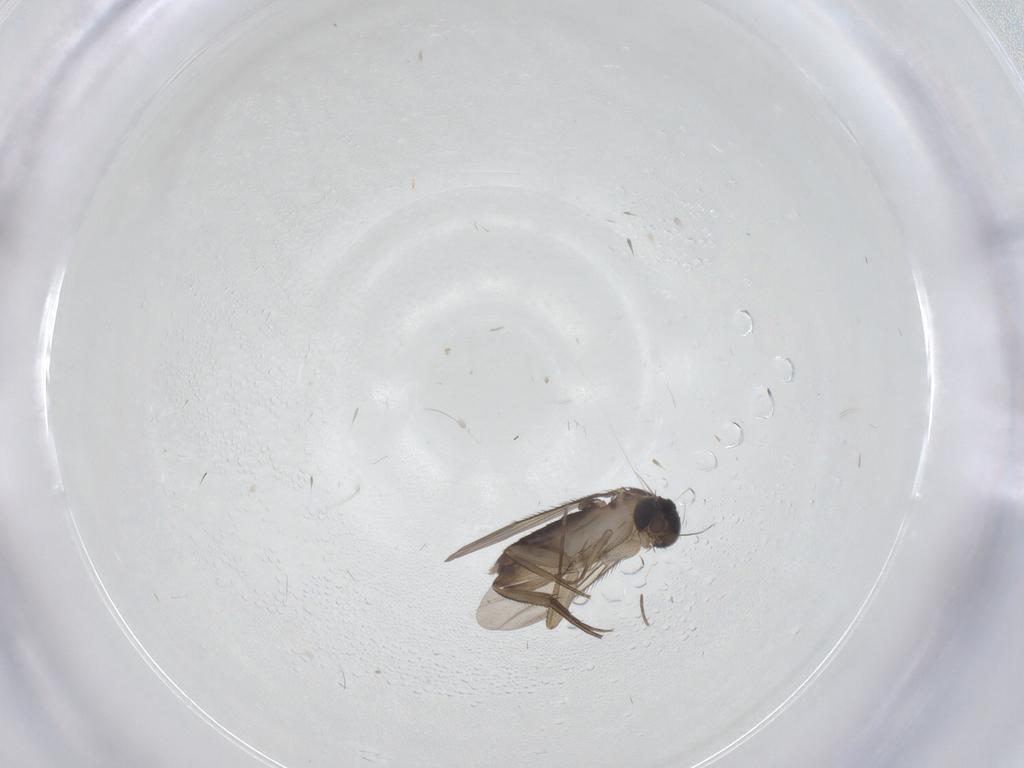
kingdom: Animalia
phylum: Arthropoda
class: Insecta
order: Diptera
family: Phoridae
